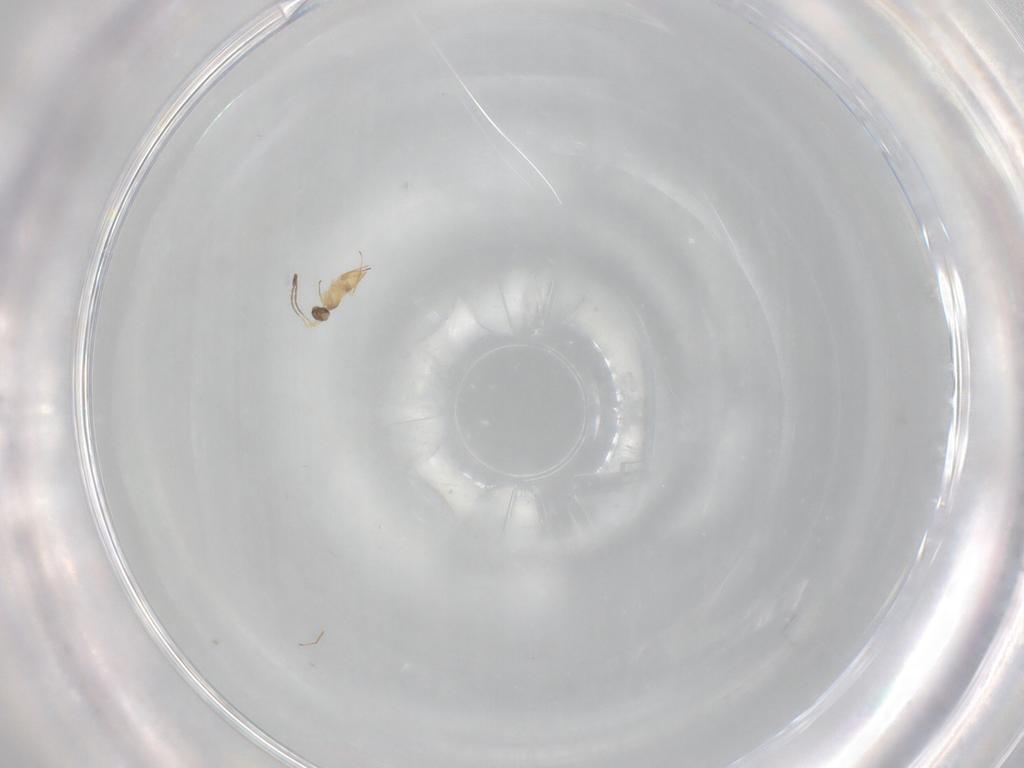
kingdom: Animalia
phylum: Arthropoda
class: Insecta
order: Hymenoptera
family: Mymaridae
